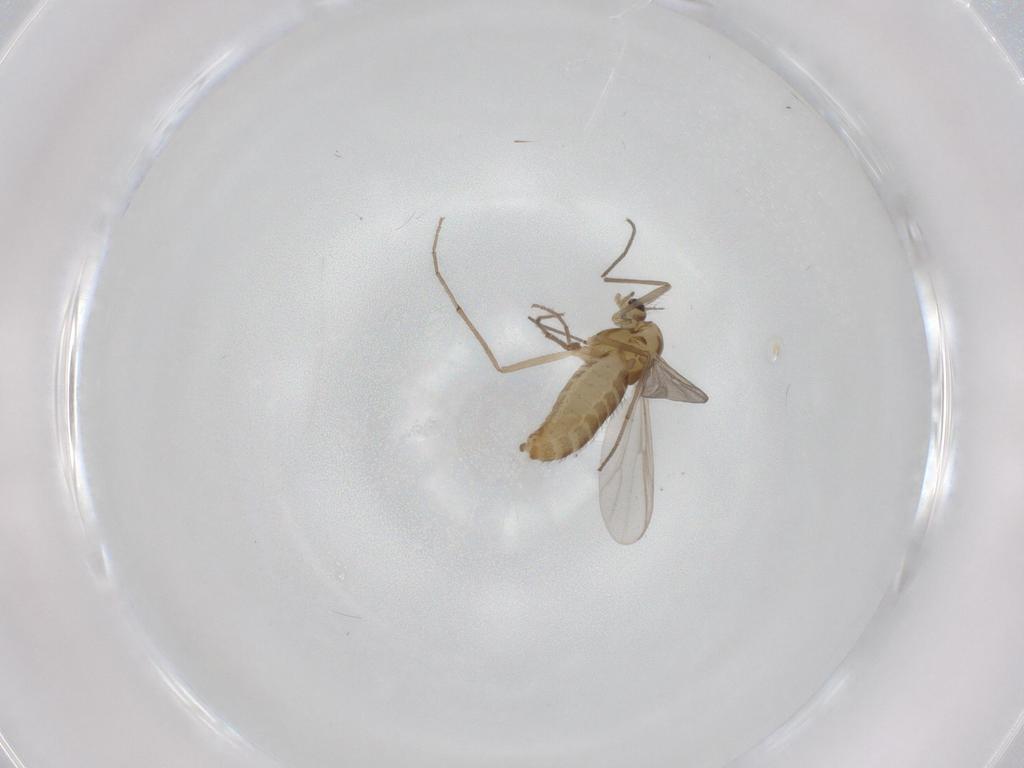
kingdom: Animalia
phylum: Arthropoda
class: Insecta
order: Diptera
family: Chironomidae
